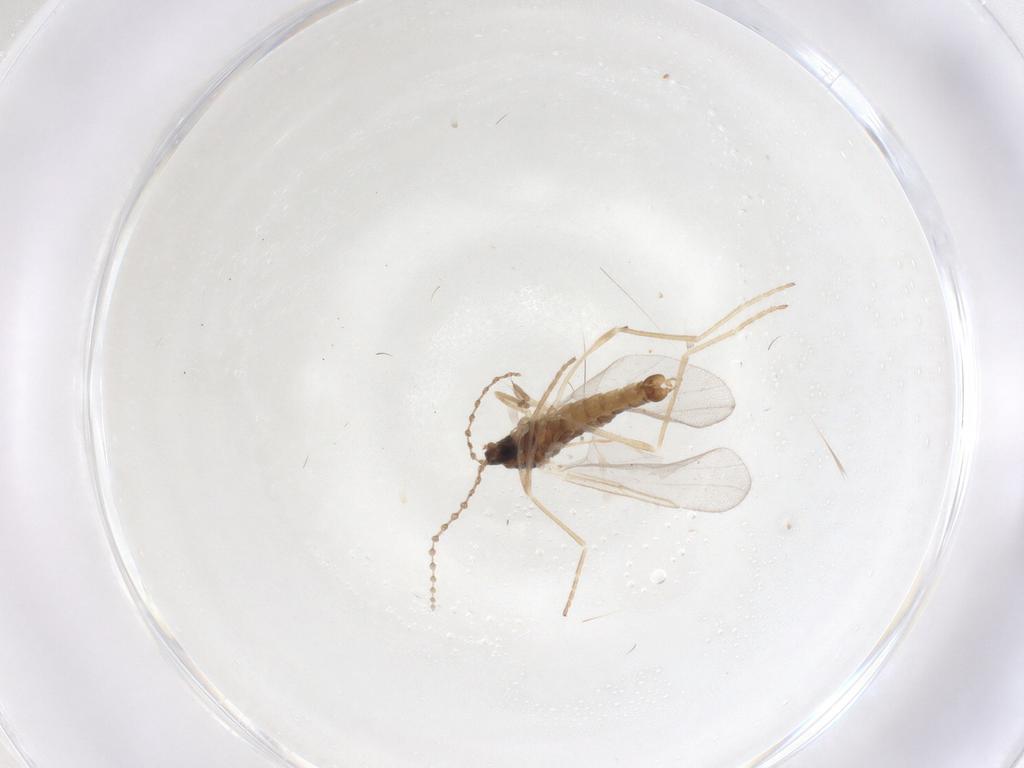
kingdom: Animalia
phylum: Arthropoda
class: Insecta
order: Diptera
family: Cecidomyiidae
